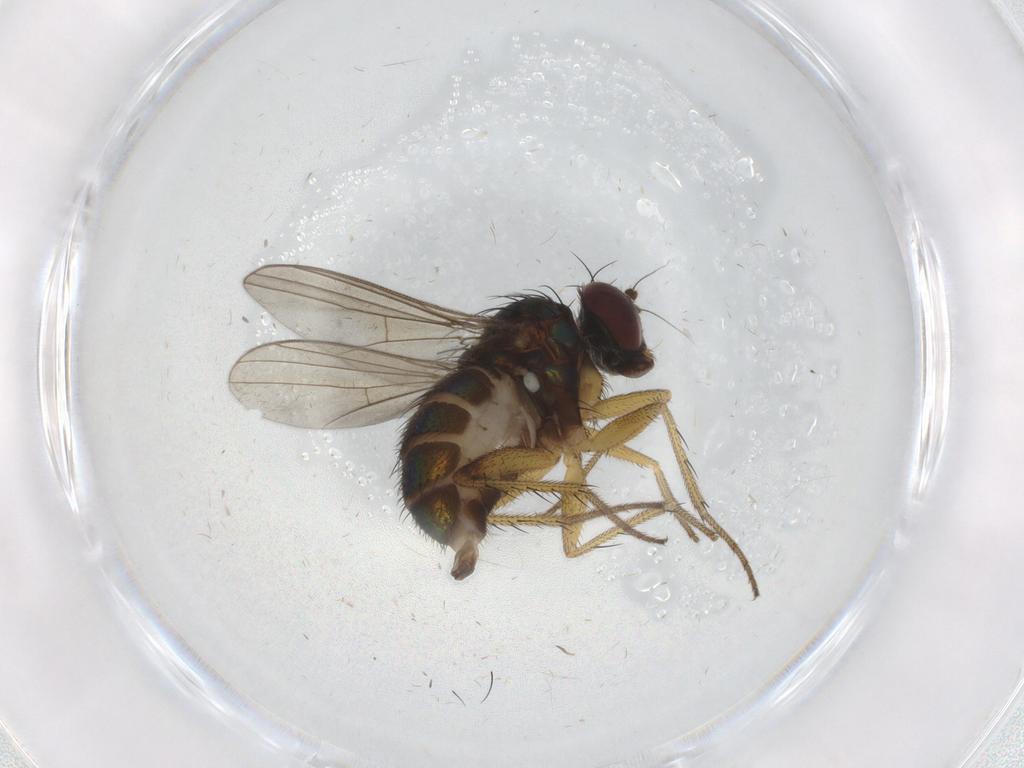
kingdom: Animalia
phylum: Arthropoda
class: Insecta
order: Diptera
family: Dolichopodidae
